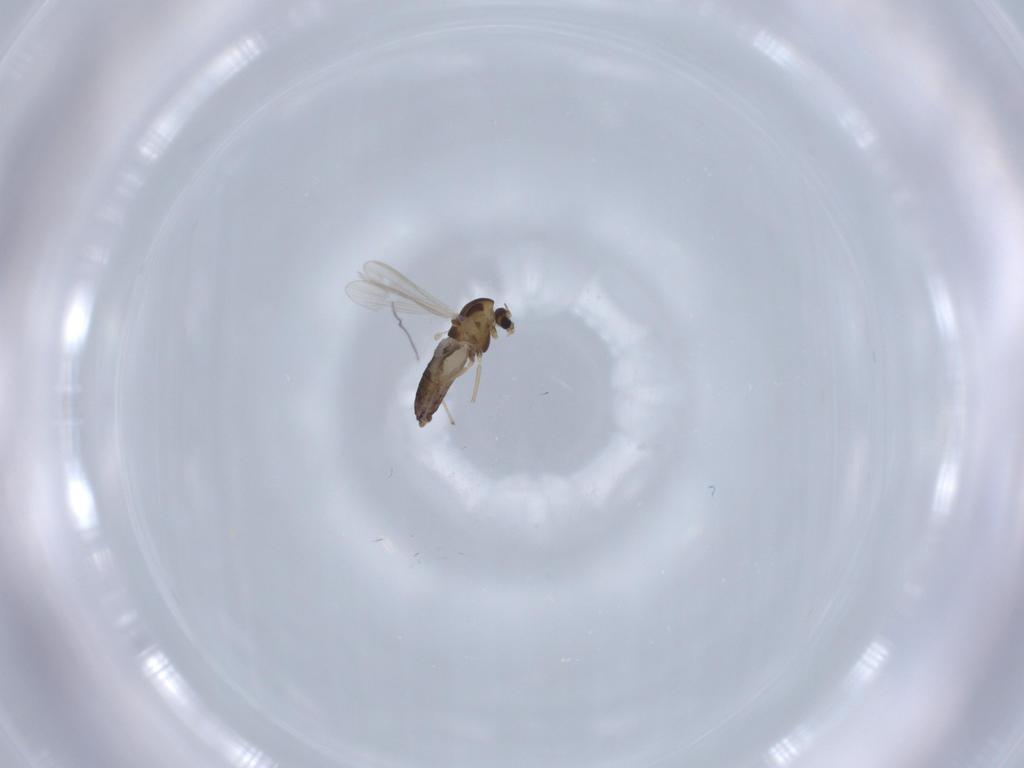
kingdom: Animalia
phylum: Arthropoda
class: Insecta
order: Diptera
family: Chironomidae
